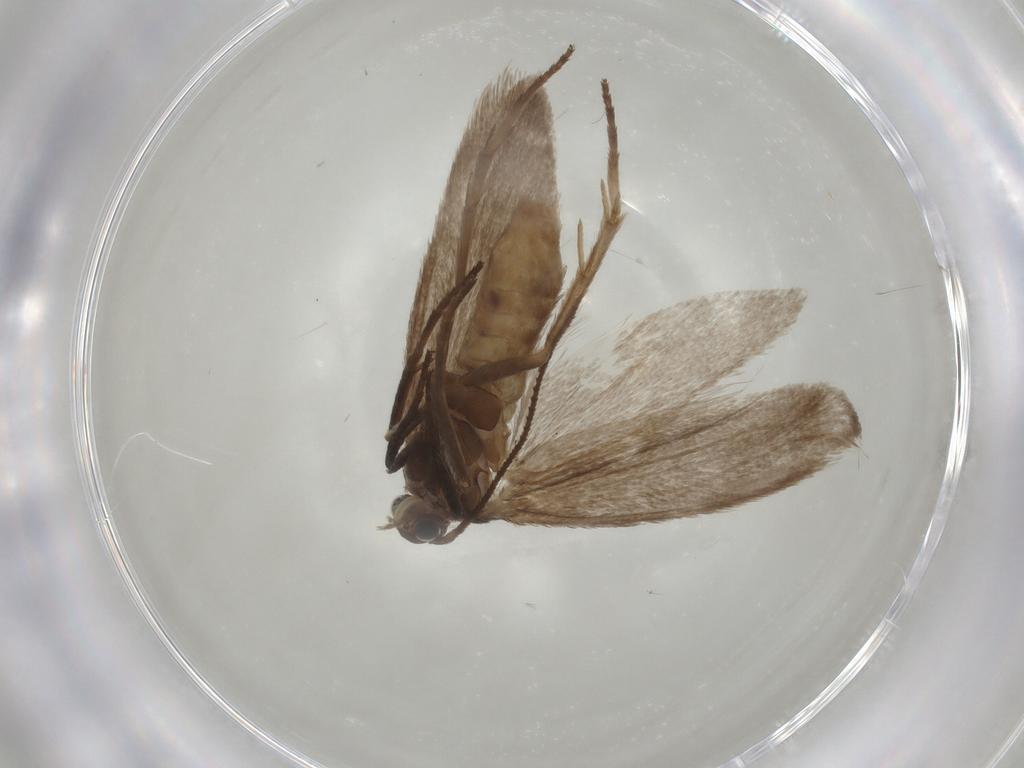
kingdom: Animalia
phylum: Arthropoda
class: Insecta
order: Lepidoptera
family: Limacodidae
